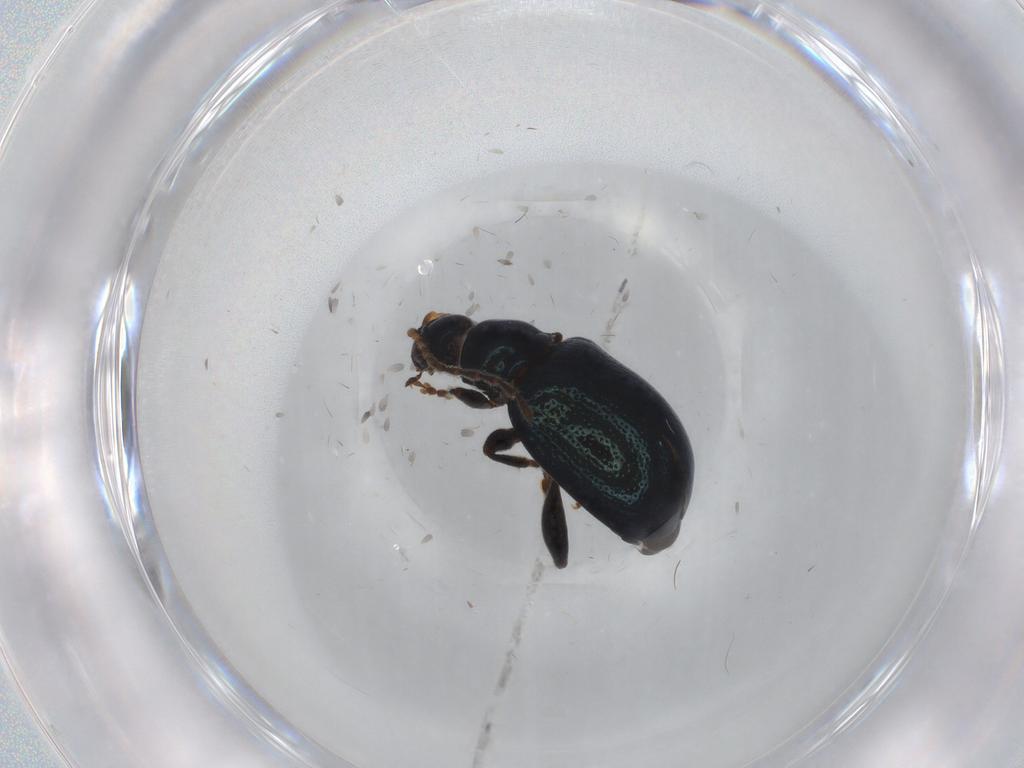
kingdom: Animalia
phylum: Arthropoda
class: Insecta
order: Coleoptera
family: Chrysomelidae
